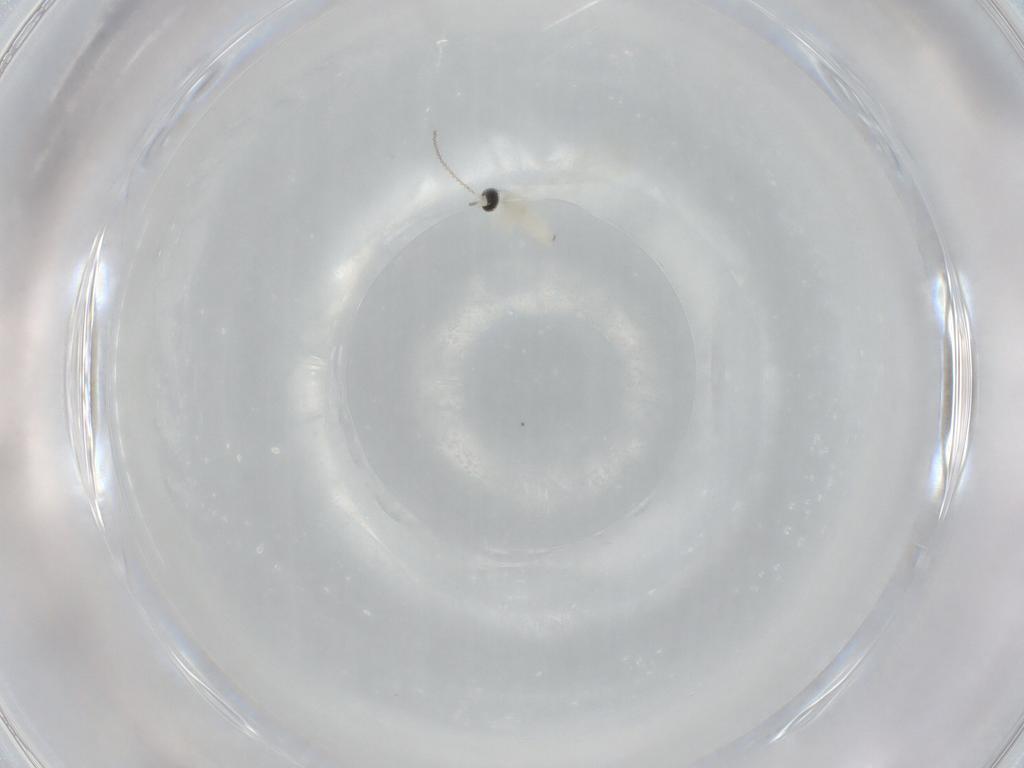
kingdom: Animalia
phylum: Arthropoda
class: Insecta
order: Diptera
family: Cecidomyiidae
